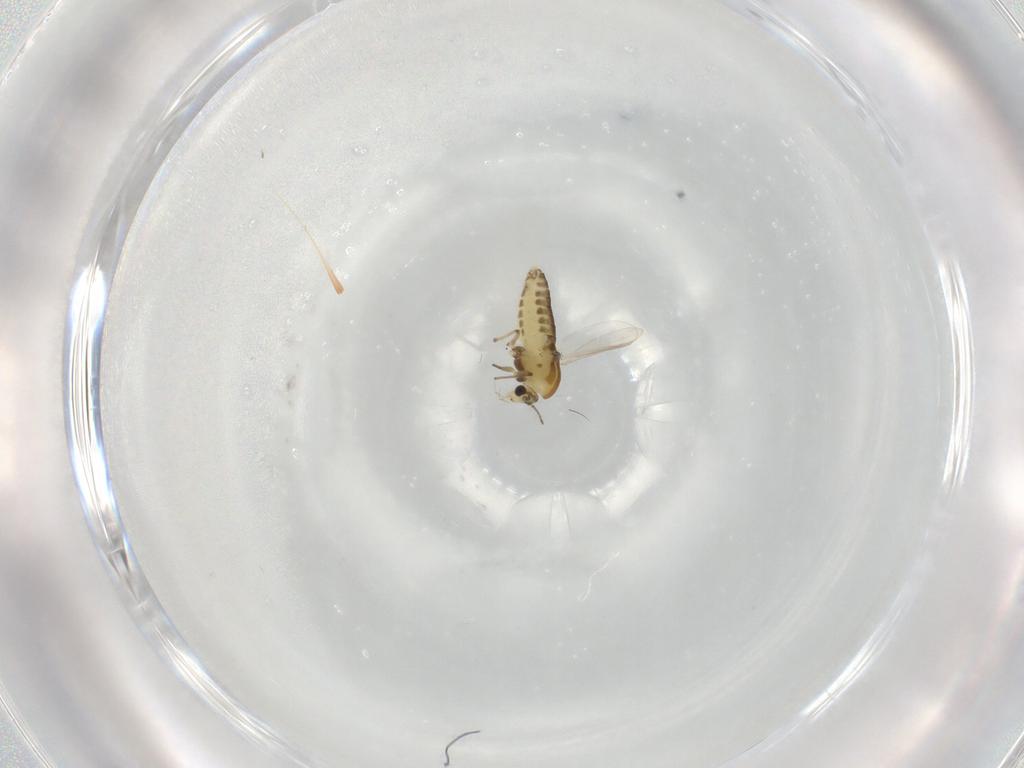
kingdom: Animalia
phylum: Arthropoda
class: Insecta
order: Diptera
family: Chironomidae
